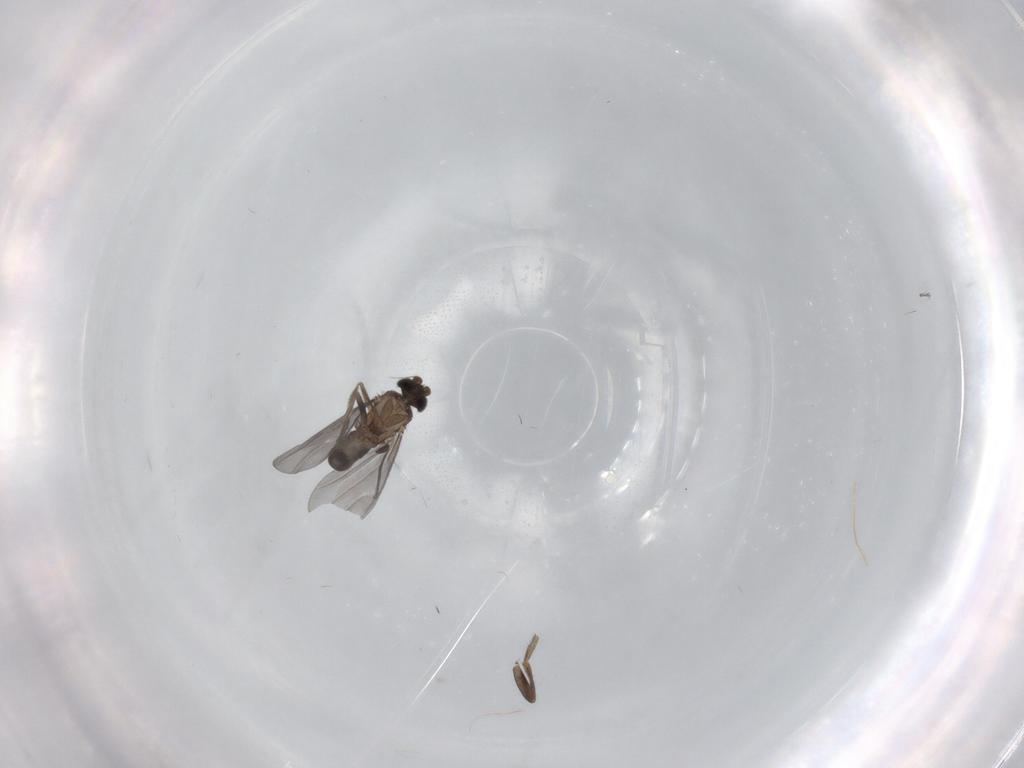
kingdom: Animalia
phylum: Arthropoda
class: Insecta
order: Diptera
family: Phoridae
